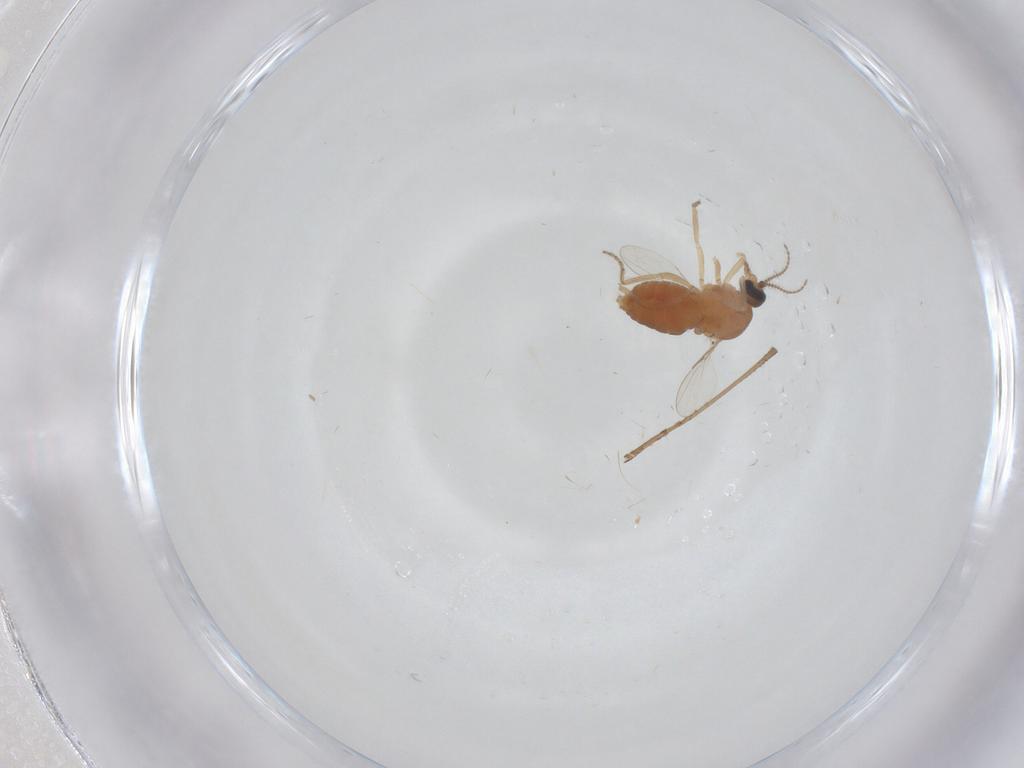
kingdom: Animalia
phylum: Arthropoda
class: Insecta
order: Diptera
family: Culicidae
